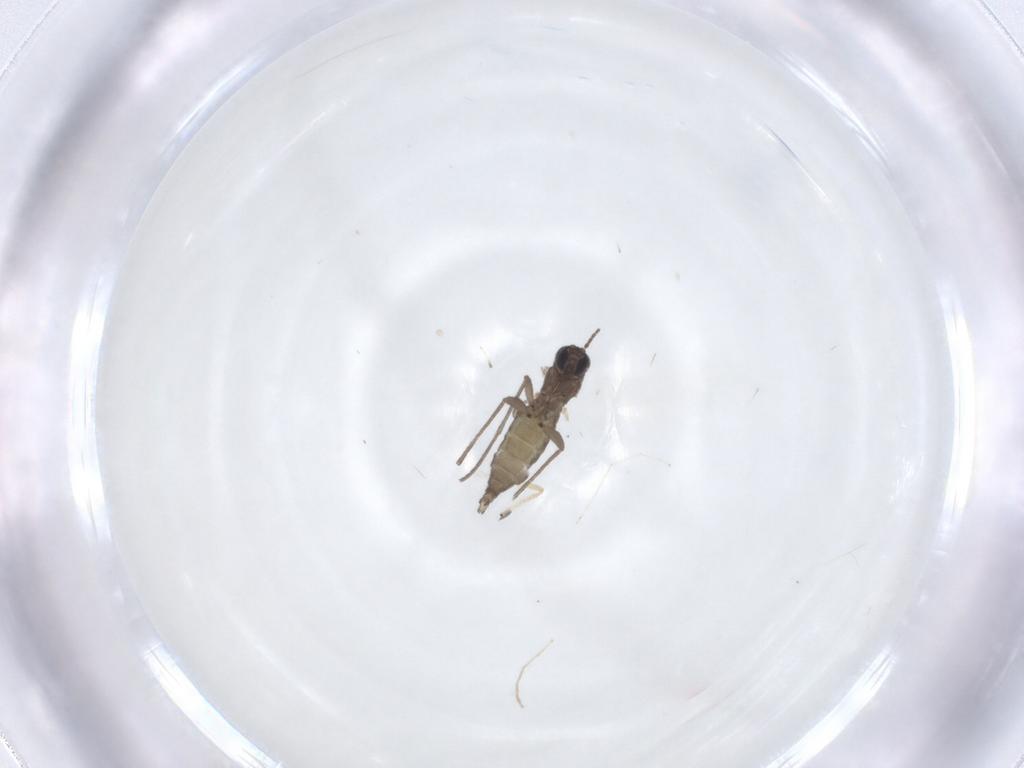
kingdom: Animalia
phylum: Arthropoda
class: Insecta
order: Diptera
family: Sciaridae
